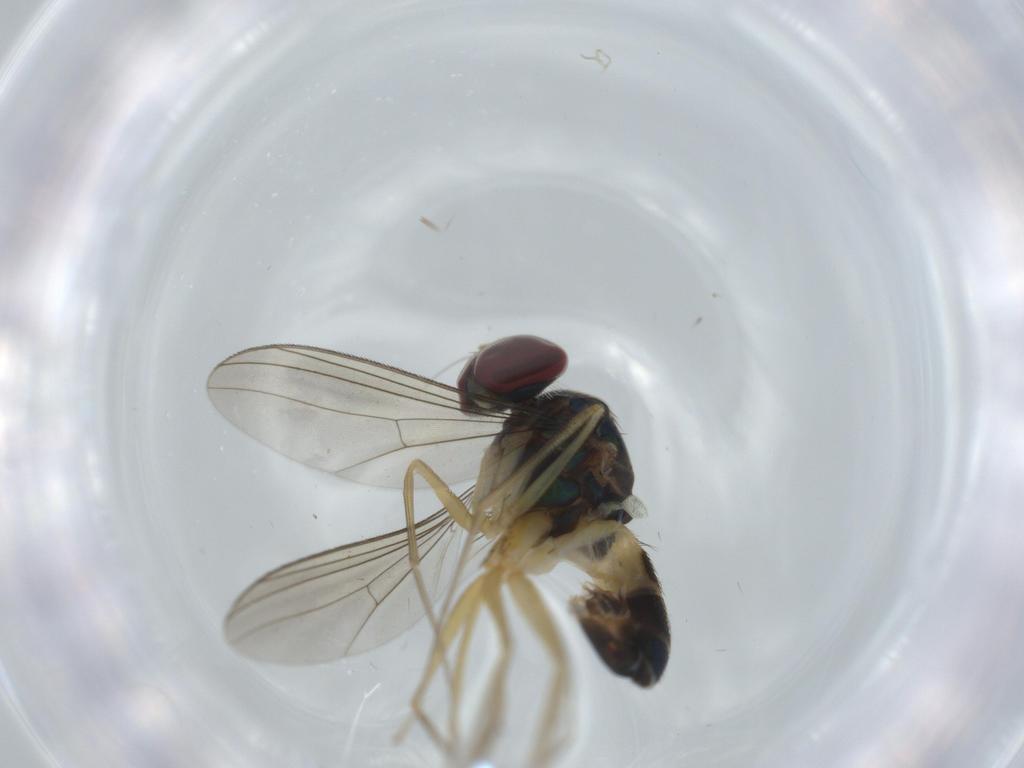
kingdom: Animalia
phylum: Arthropoda
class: Insecta
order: Diptera
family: Dolichopodidae
